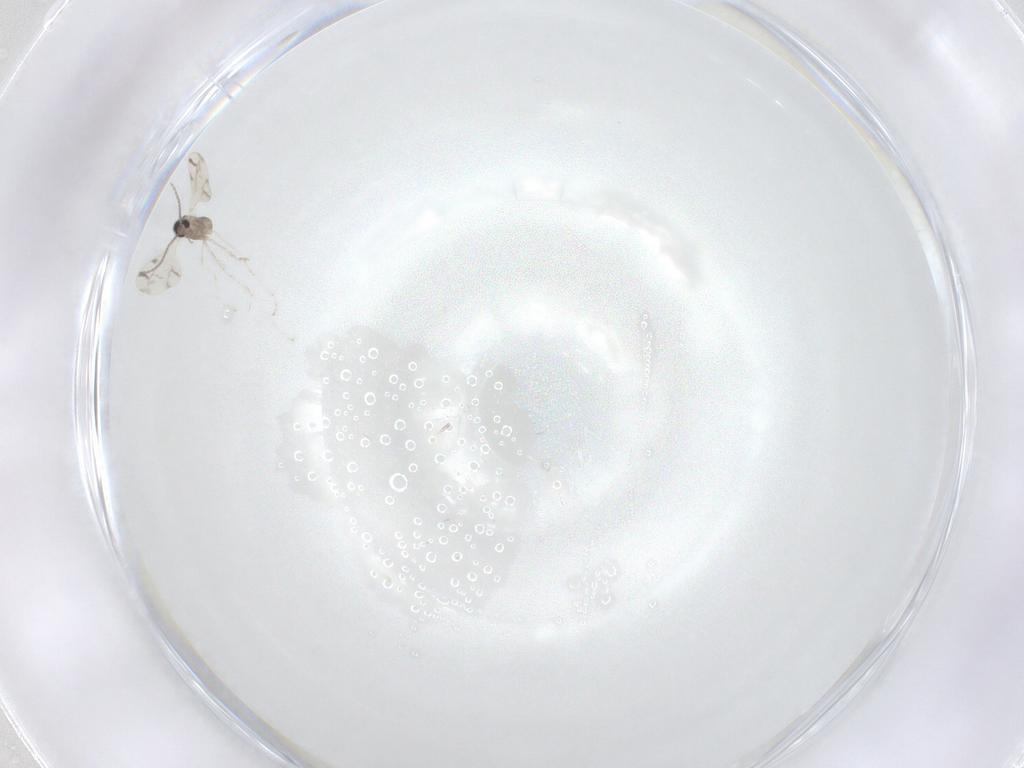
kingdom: Animalia
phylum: Arthropoda
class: Insecta
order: Diptera
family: Cecidomyiidae
